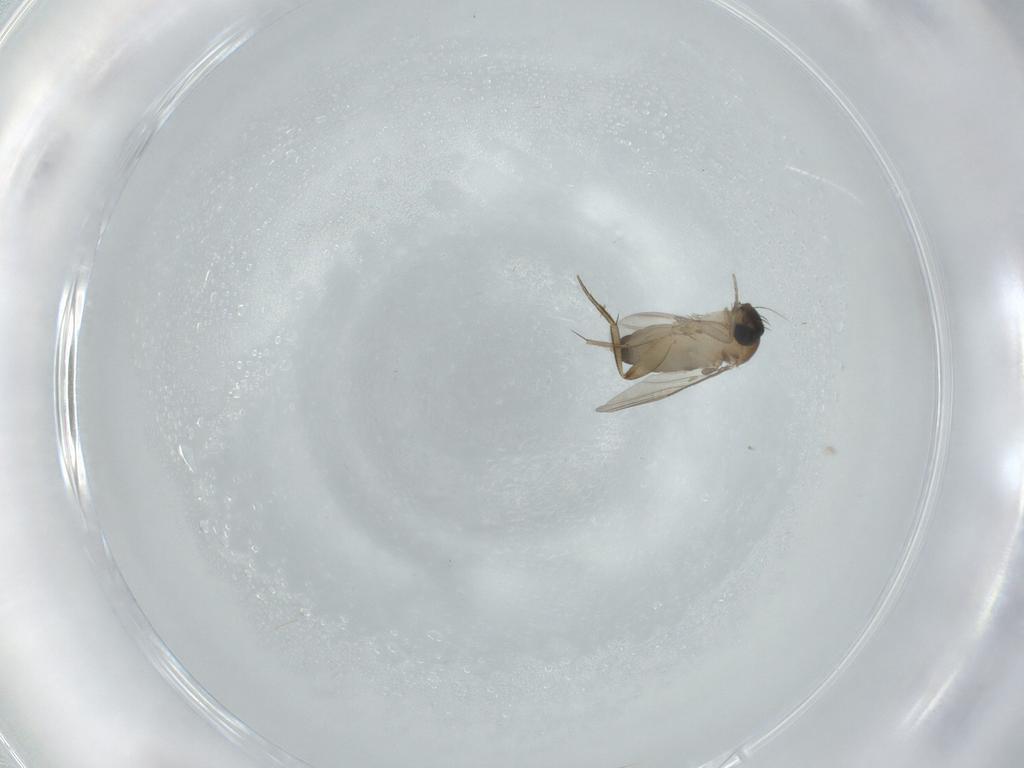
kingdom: Animalia
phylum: Arthropoda
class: Insecta
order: Diptera
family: Phoridae
